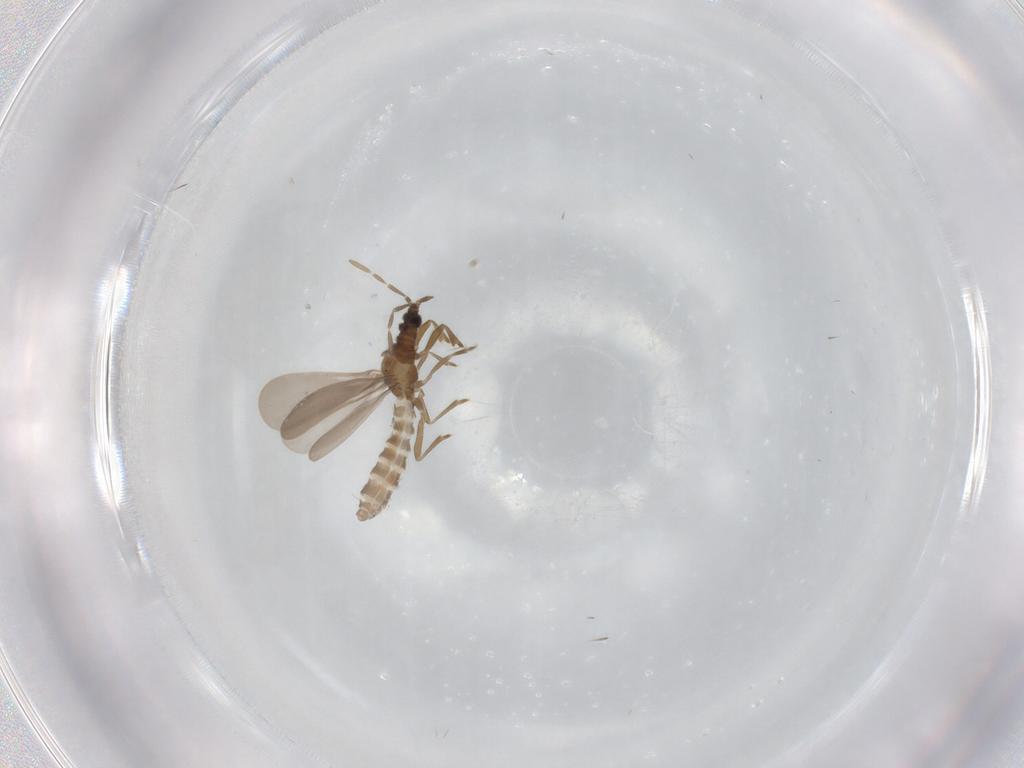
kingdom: Animalia
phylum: Arthropoda
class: Insecta
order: Hemiptera
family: Enicocephalidae
